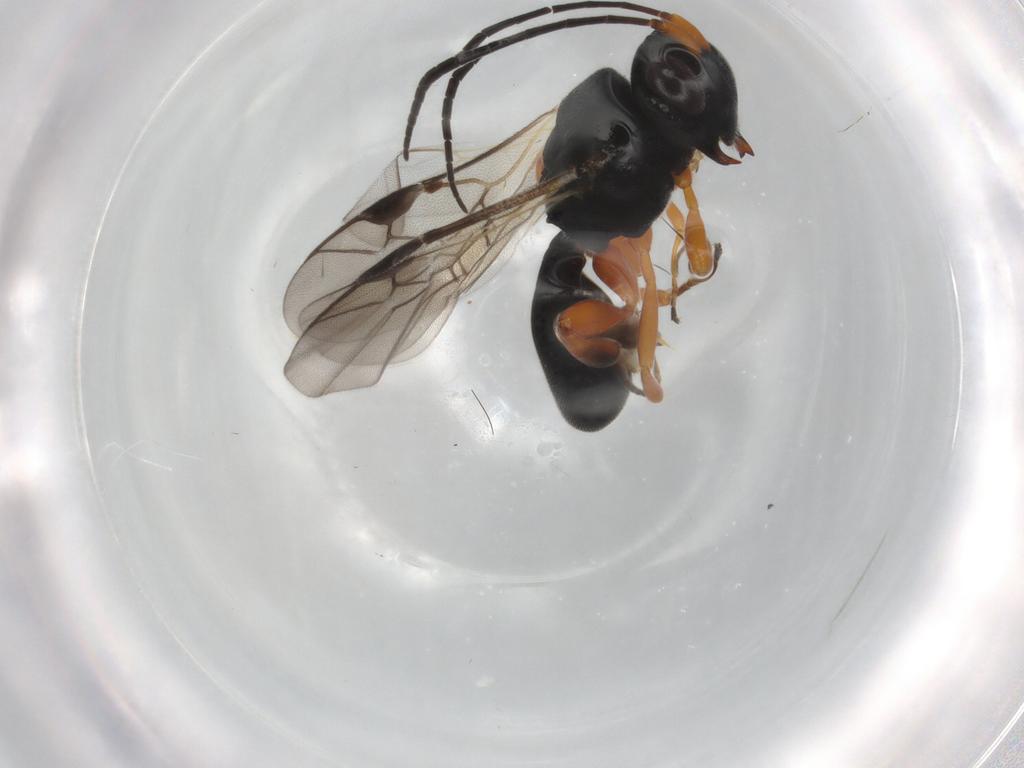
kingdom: Animalia
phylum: Arthropoda
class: Insecta
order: Hymenoptera
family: Braconidae
